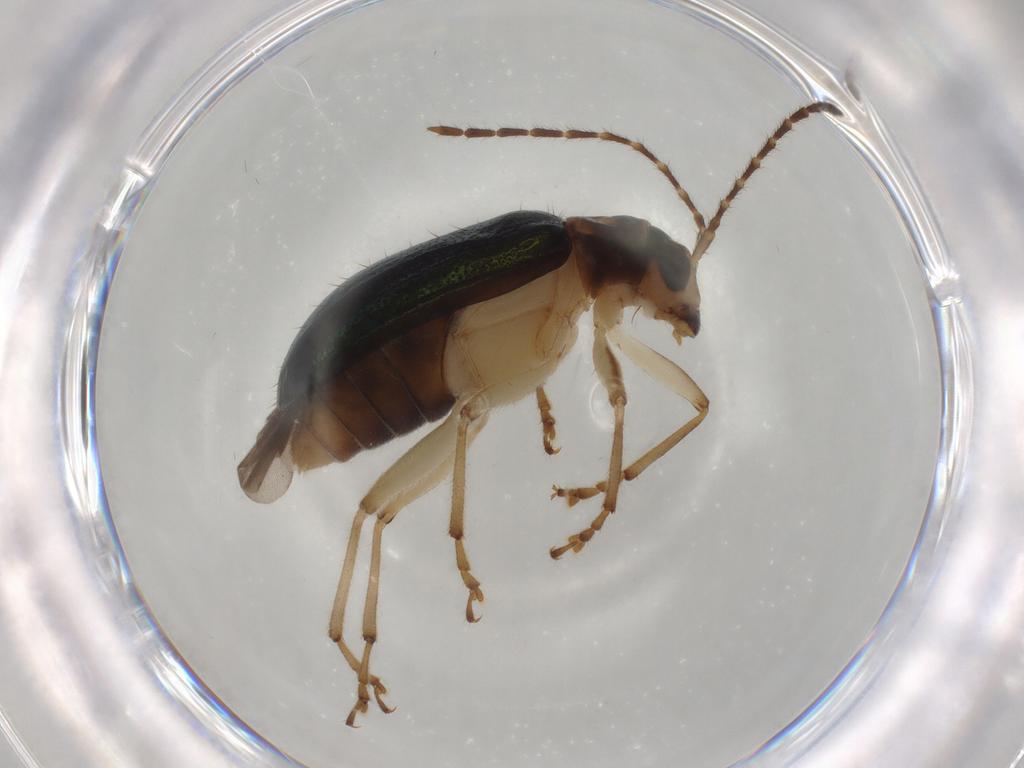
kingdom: Animalia
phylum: Arthropoda
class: Insecta
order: Coleoptera
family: Chrysomelidae
